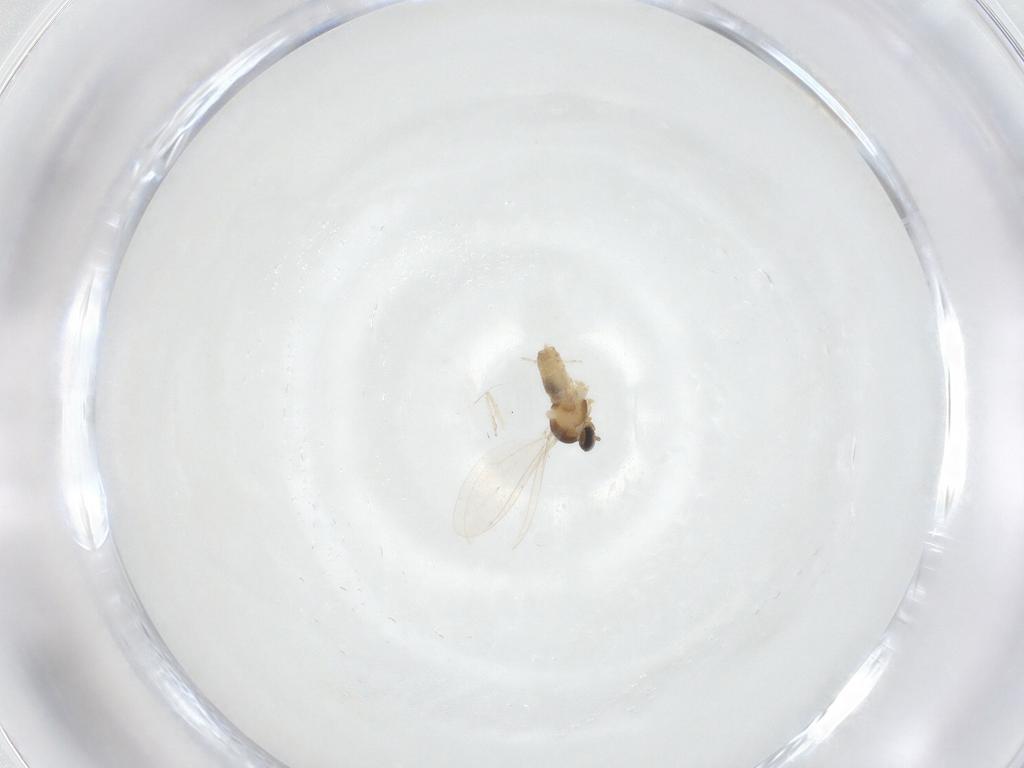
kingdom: Animalia
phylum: Arthropoda
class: Insecta
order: Diptera
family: Cecidomyiidae
